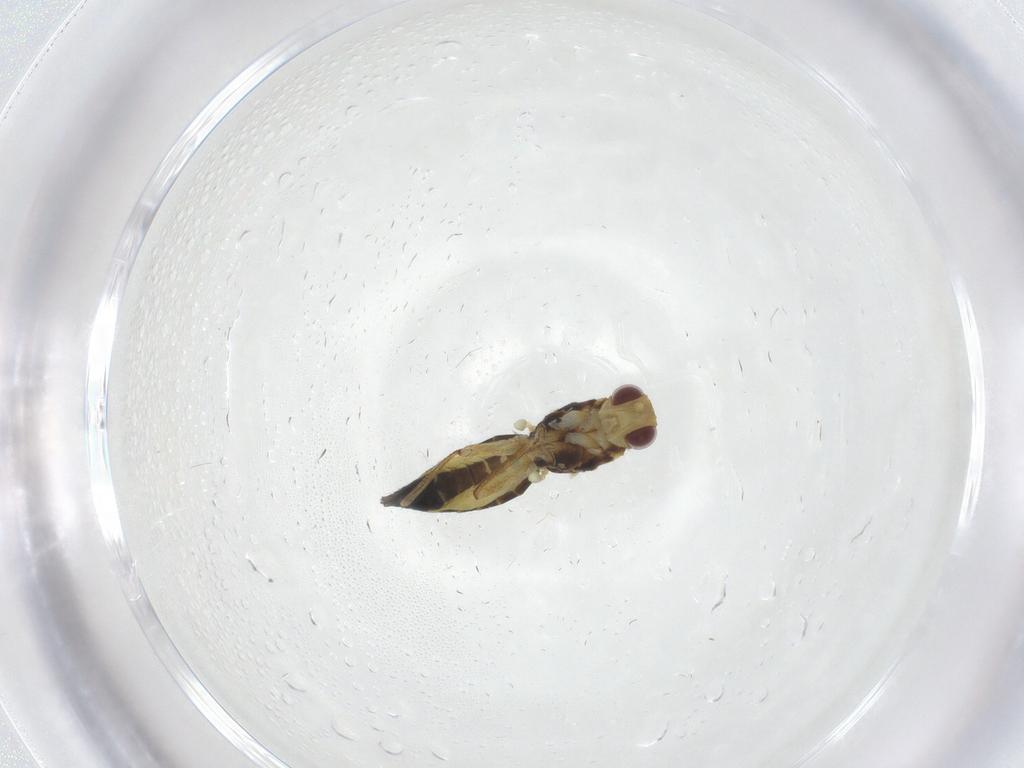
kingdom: Animalia
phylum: Arthropoda
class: Insecta
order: Diptera
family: Agromyzidae
